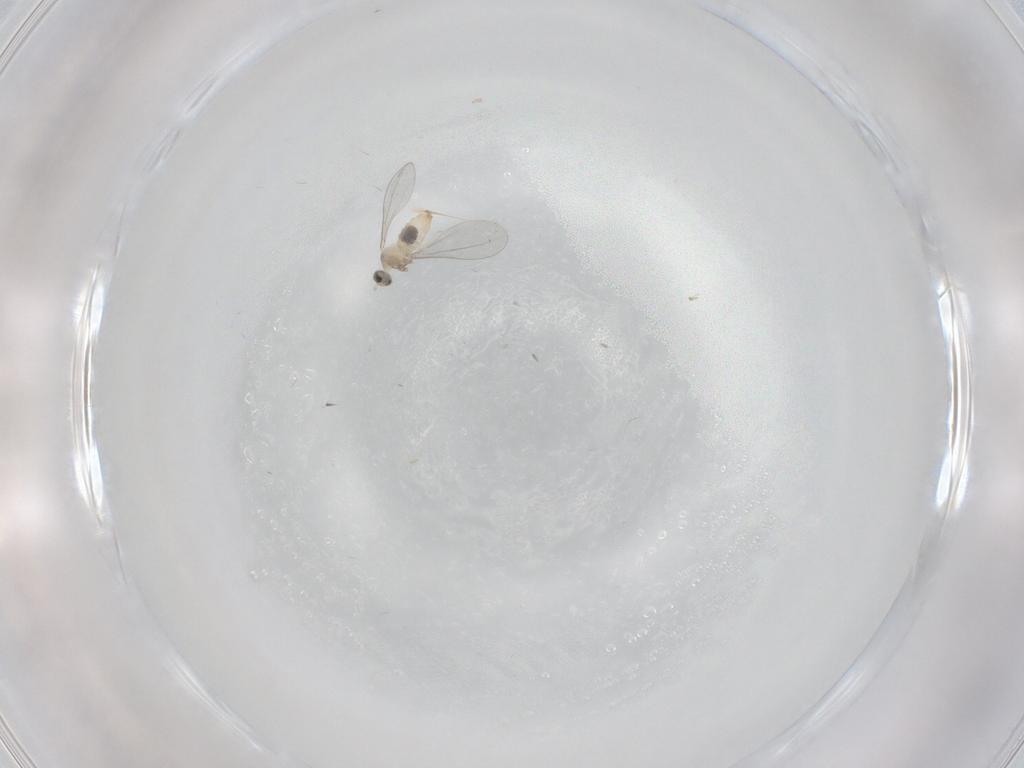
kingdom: Animalia
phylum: Arthropoda
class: Insecta
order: Diptera
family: Cecidomyiidae
